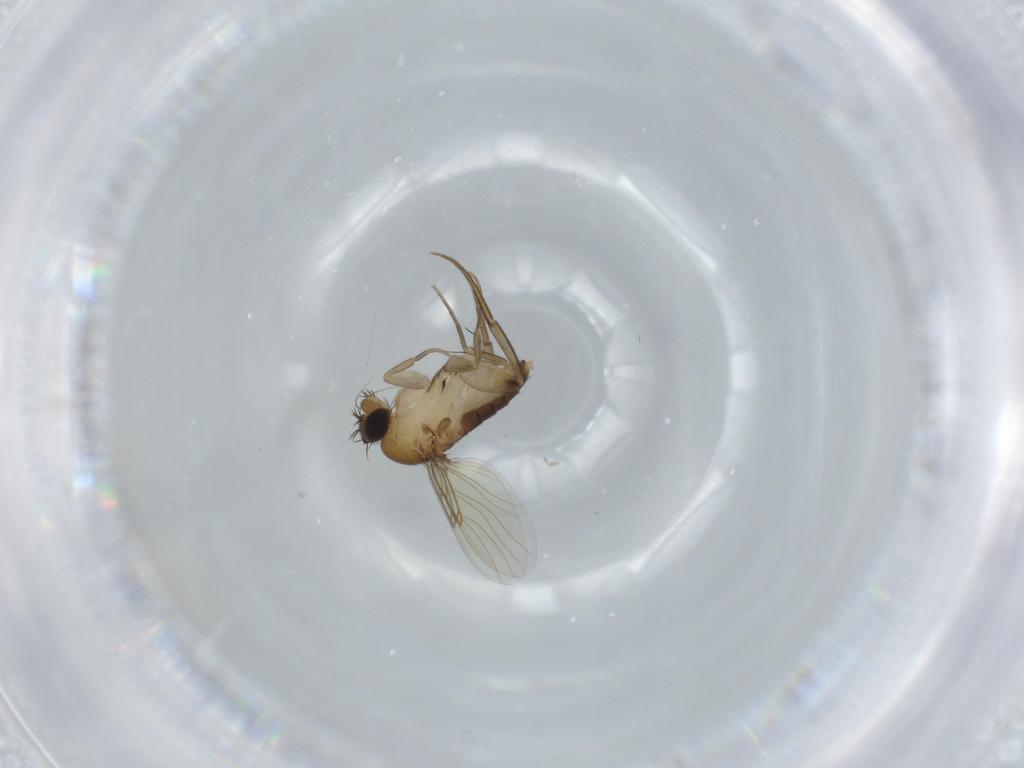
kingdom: Animalia
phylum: Arthropoda
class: Insecta
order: Diptera
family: Phoridae
